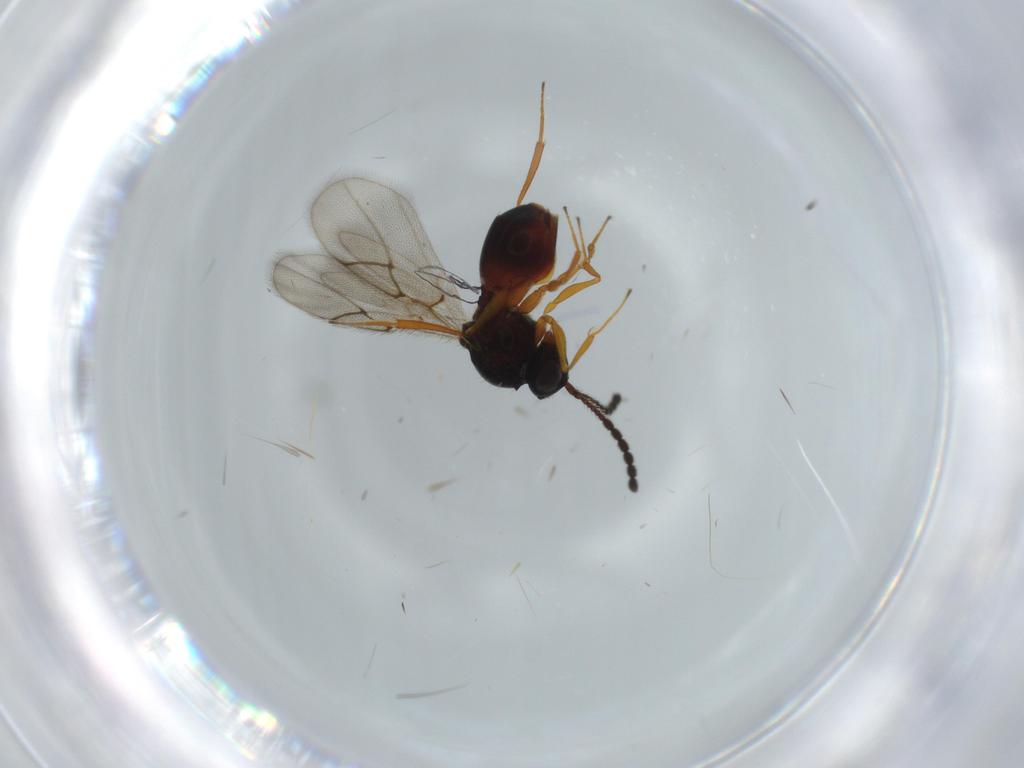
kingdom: Animalia
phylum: Arthropoda
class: Insecta
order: Hymenoptera
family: Figitidae
